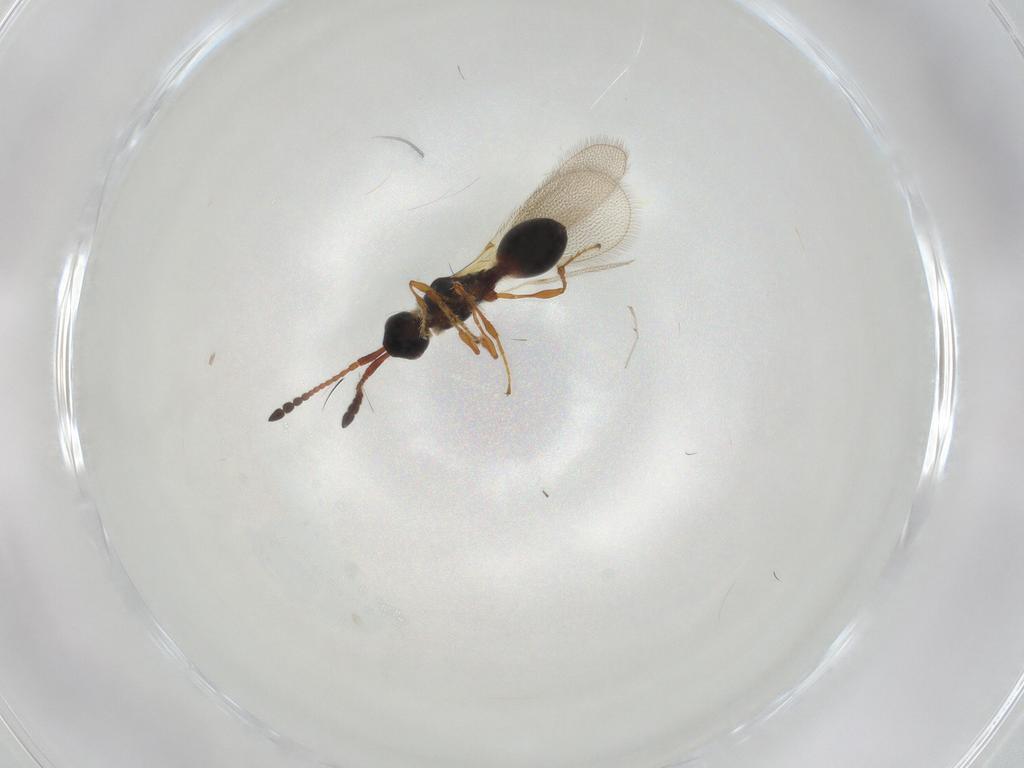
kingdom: Animalia
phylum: Arthropoda
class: Insecta
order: Hymenoptera
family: Diapriidae
